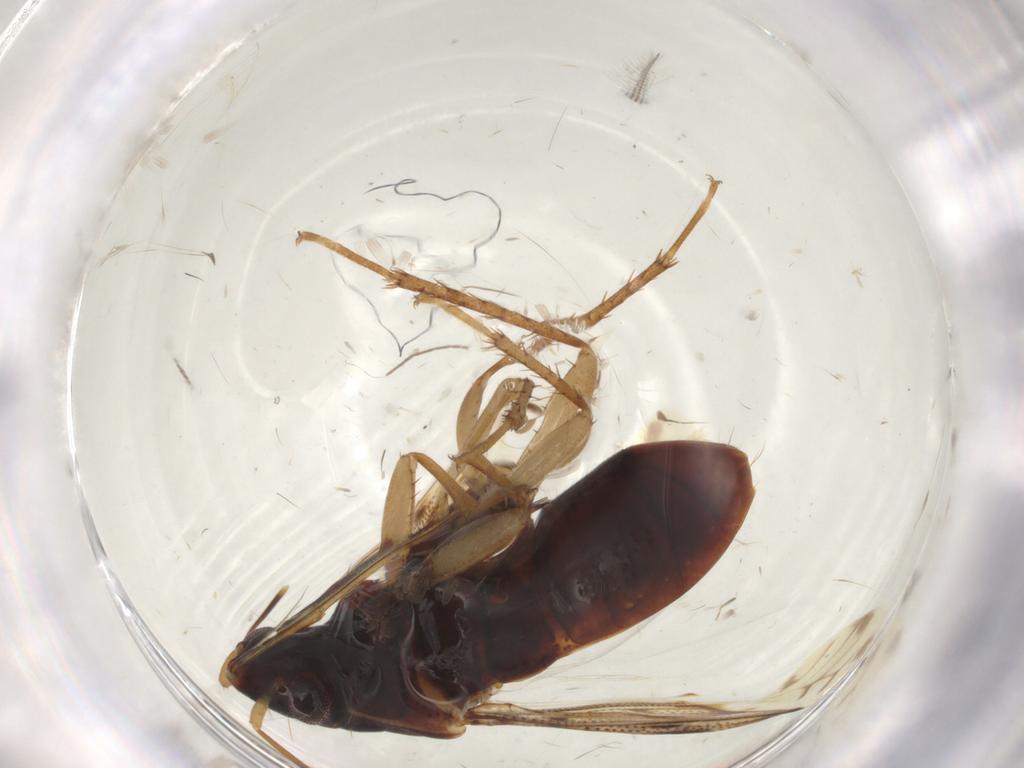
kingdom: Animalia
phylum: Arthropoda
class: Insecta
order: Hemiptera
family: Rhyparochromidae
